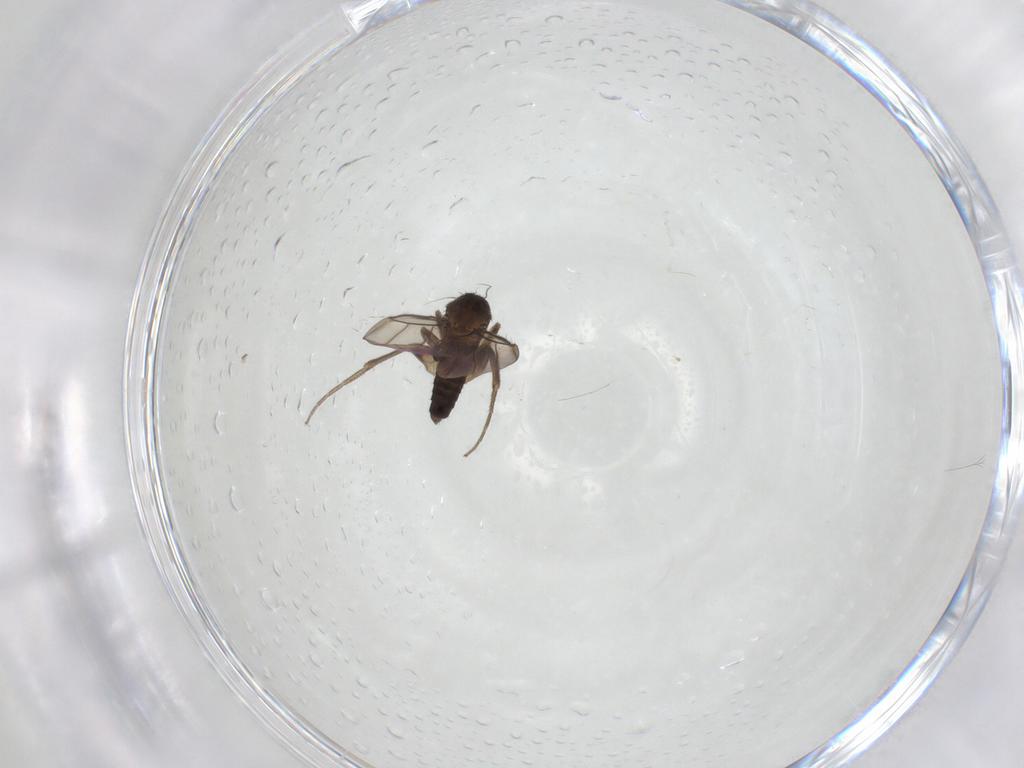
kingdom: Animalia
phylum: Arthropoda
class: Insecta
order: Diptera
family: Phoridae
